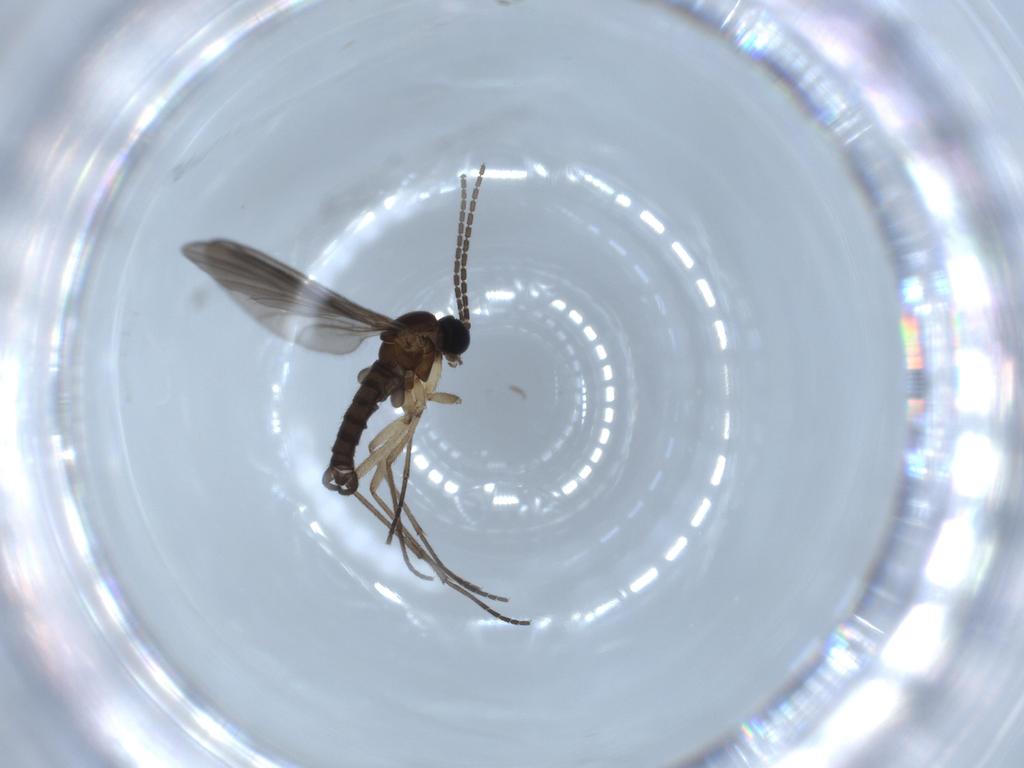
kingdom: Animalia
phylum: Arthropoda
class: Insecta
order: Diptera
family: Sciaridae
